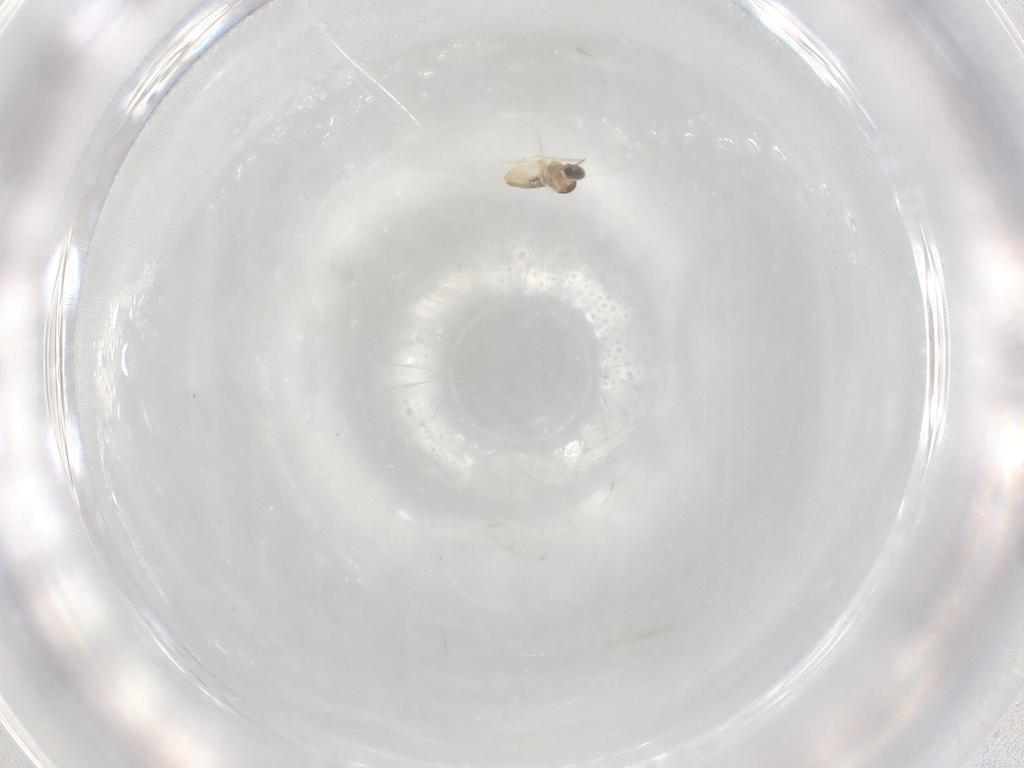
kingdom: Animalia
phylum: Arthropoda
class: Insecta
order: Diptera
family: Cecidomyiidae
